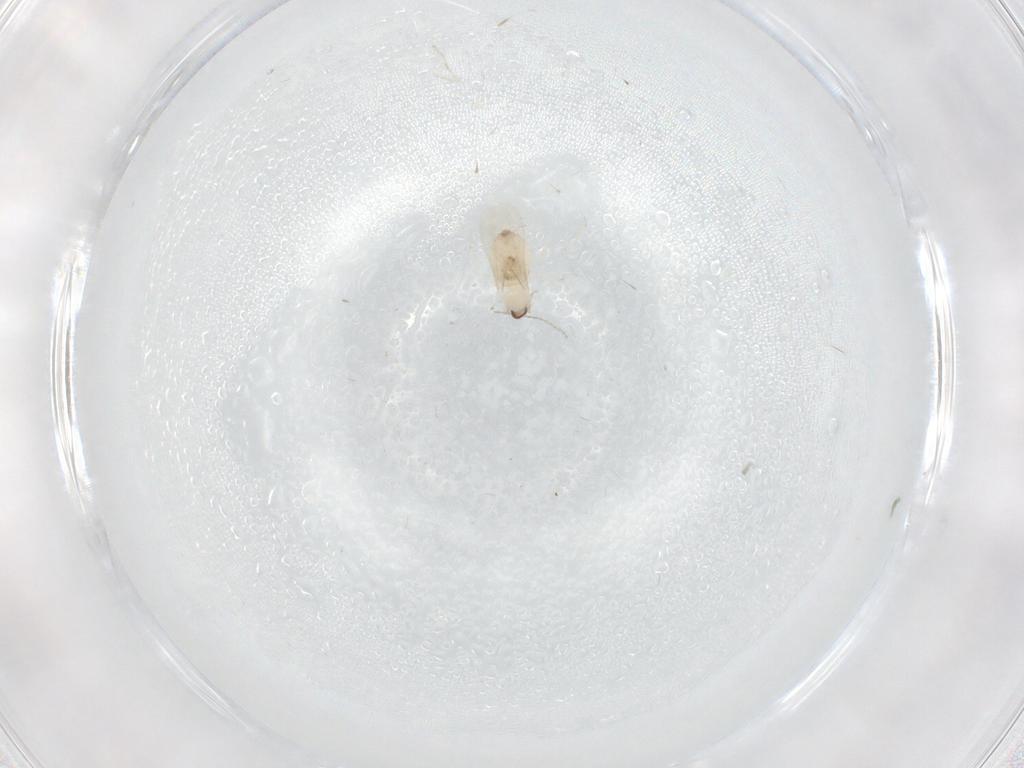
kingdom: Animalia
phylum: Arthropoda
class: Insecta
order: Diptera
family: Cecidomyiidae
